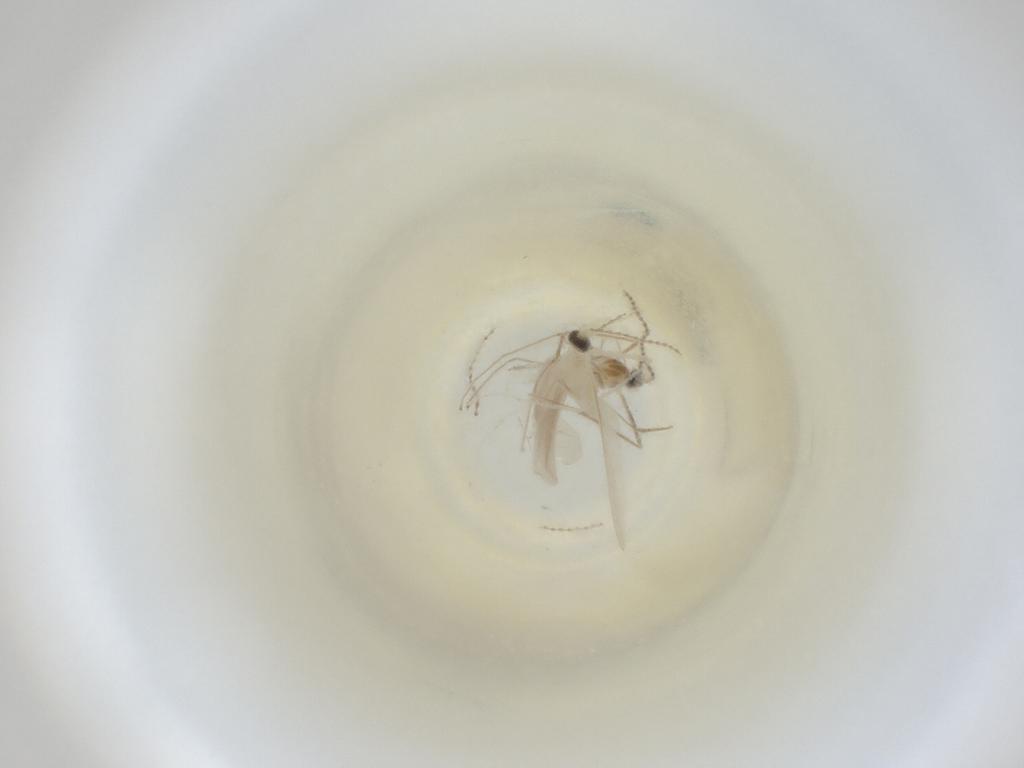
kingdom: Animalia
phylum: Arthropoda
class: Insecta
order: Diptera
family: Cecidomyiidae
